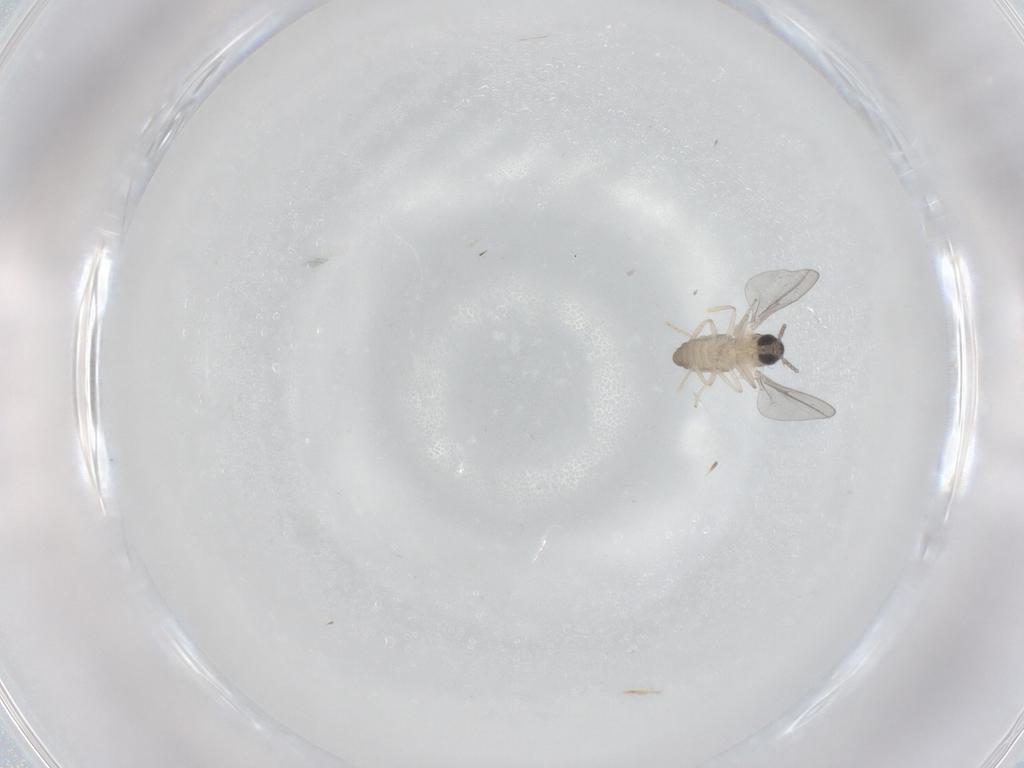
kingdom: Animalia
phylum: Arthropoda
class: Insecta
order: Diptera
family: Cecidomyiidae
